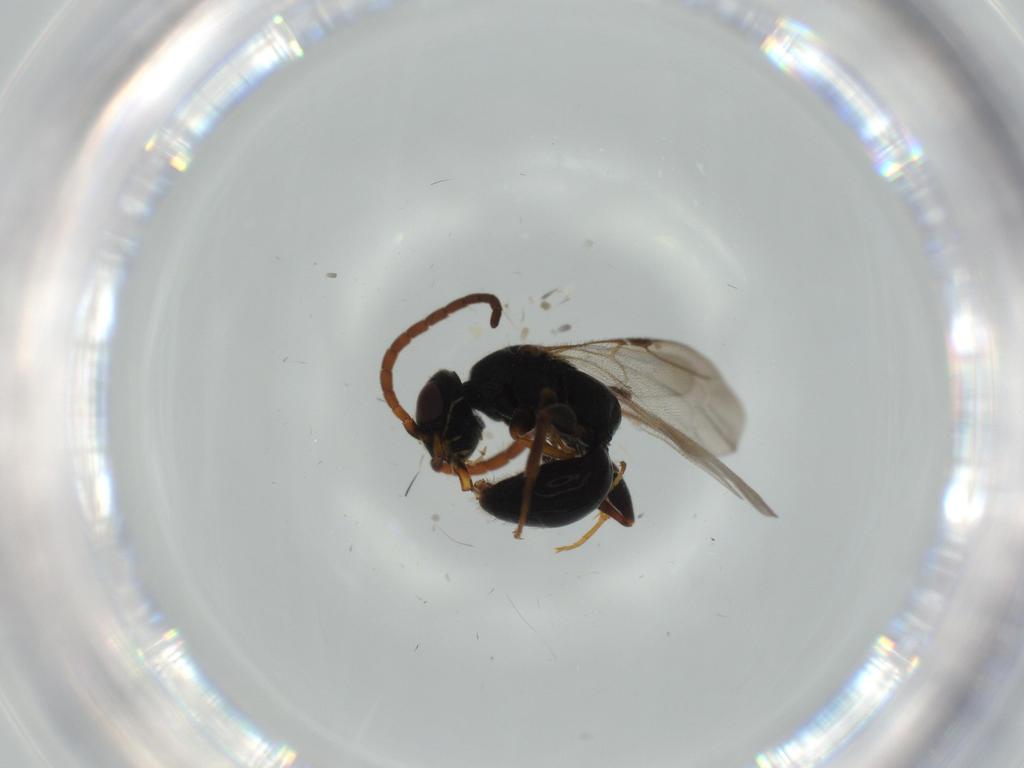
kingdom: Animalia
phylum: Arthropoda
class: Insecta
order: Hymenoptera
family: Bethylidae
